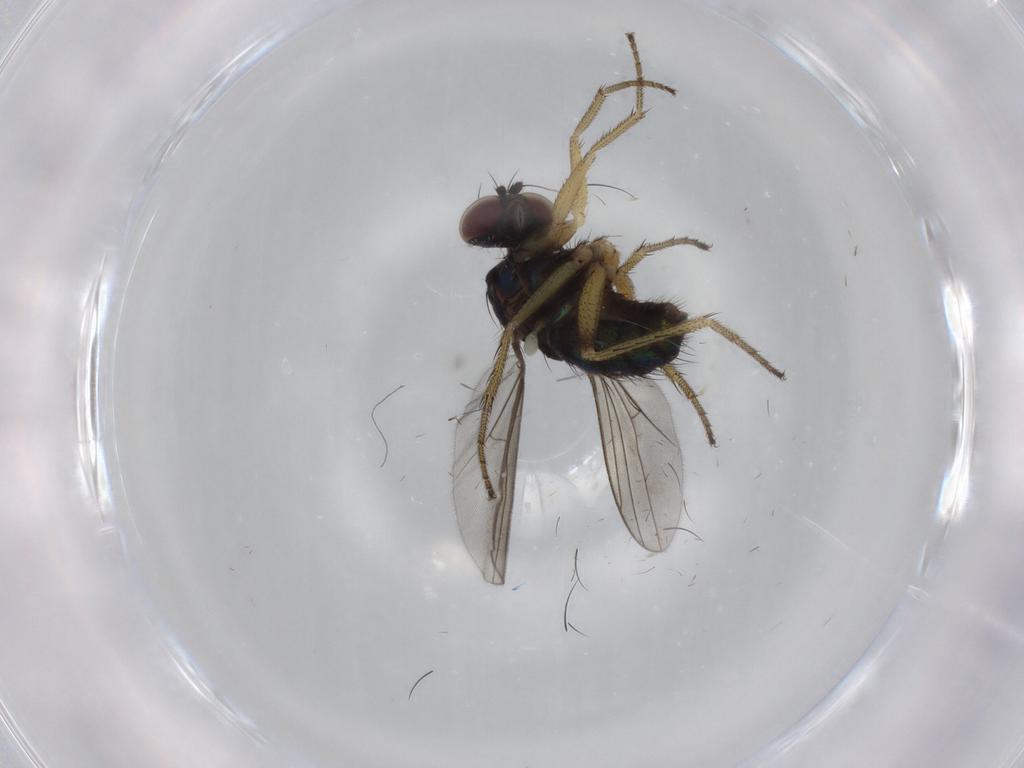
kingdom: Animalia
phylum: Arthropoda
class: Insecta
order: Diptera
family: Dolichopodidae
